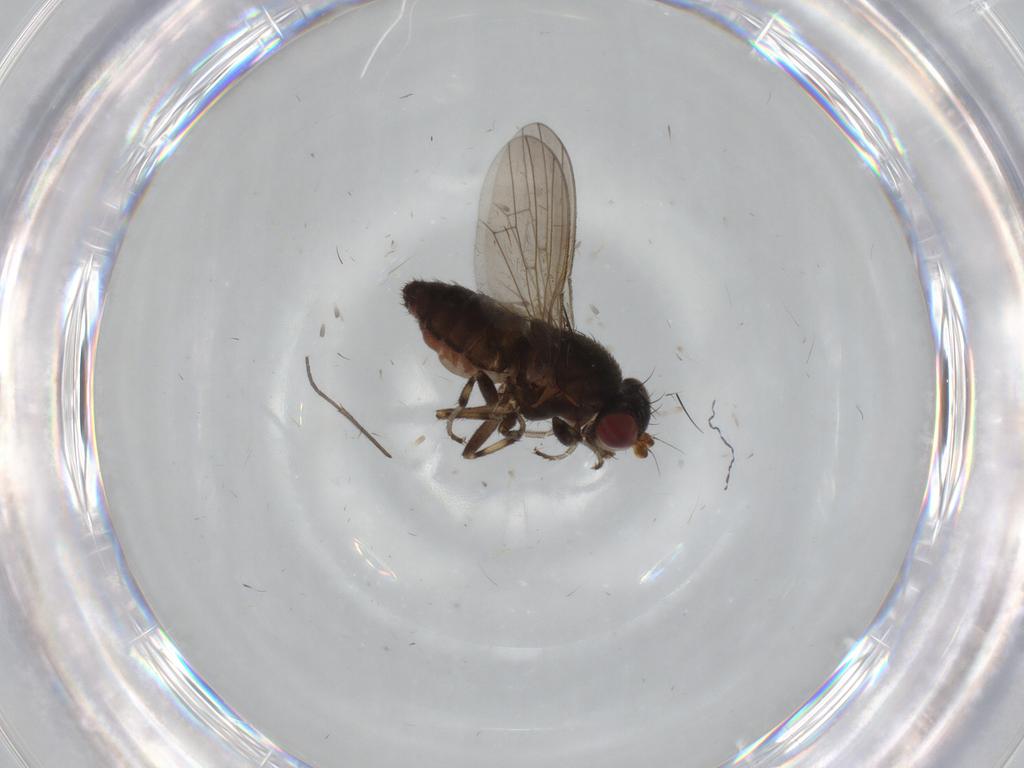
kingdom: Animalia
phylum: Arthropoda
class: Insecta
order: Diptera
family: Heleomyzidae
